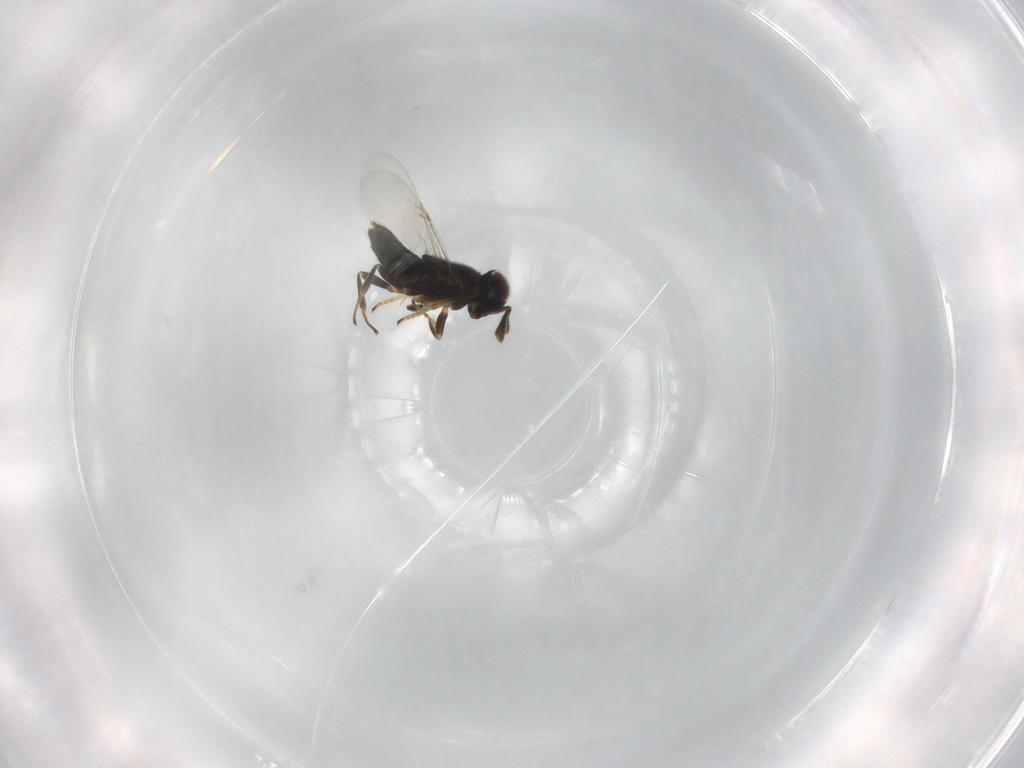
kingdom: Animalia
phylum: Arthropoda
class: Insecta
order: Hymenoptera
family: Encyrtidae
